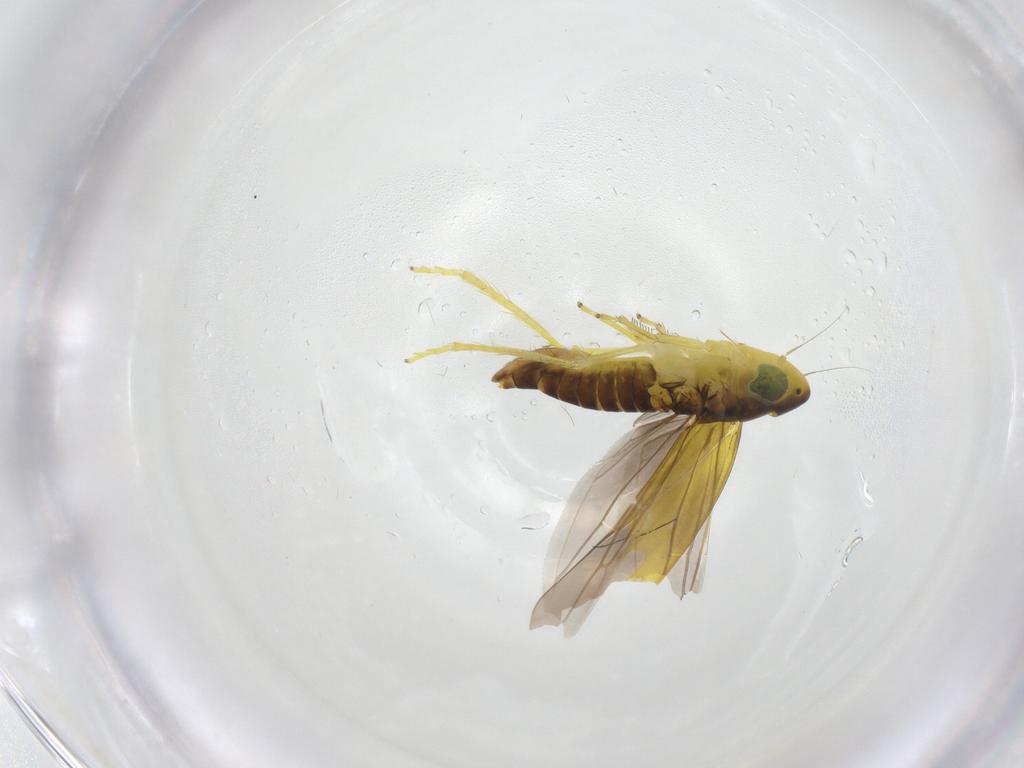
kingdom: Animalia
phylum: Arthropoda
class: Insecta
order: Hemiptera
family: Cicadellidae
